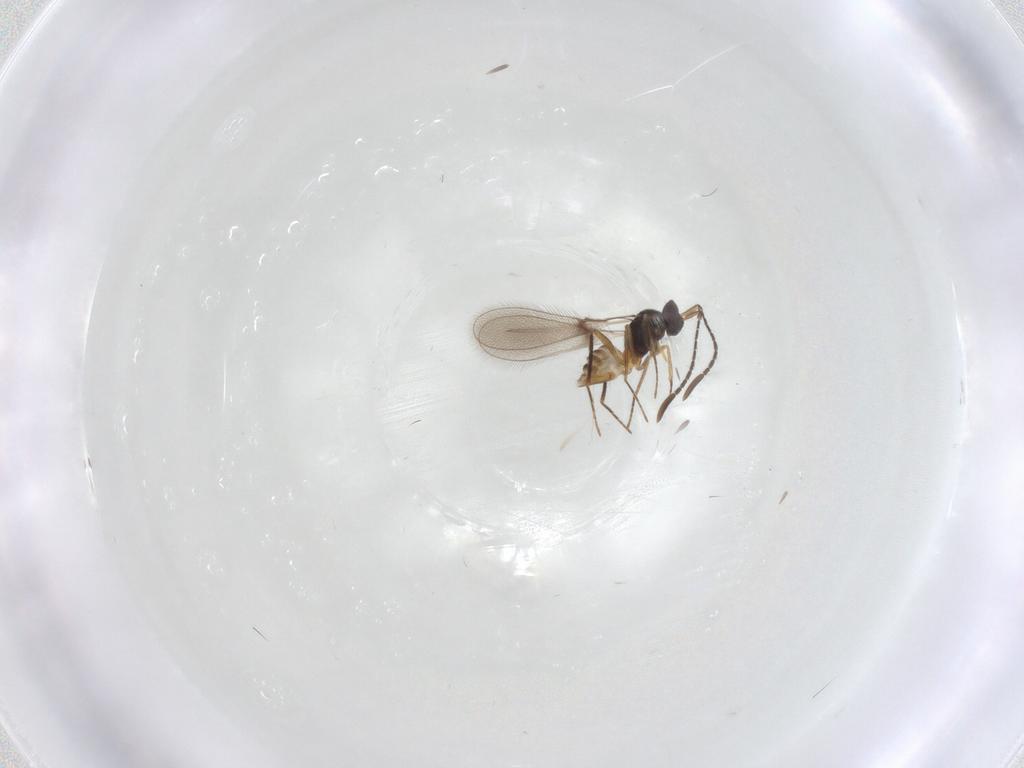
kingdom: Animalia
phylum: Arthropoda
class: Insecta
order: Hymenoptera
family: Mymaridae
